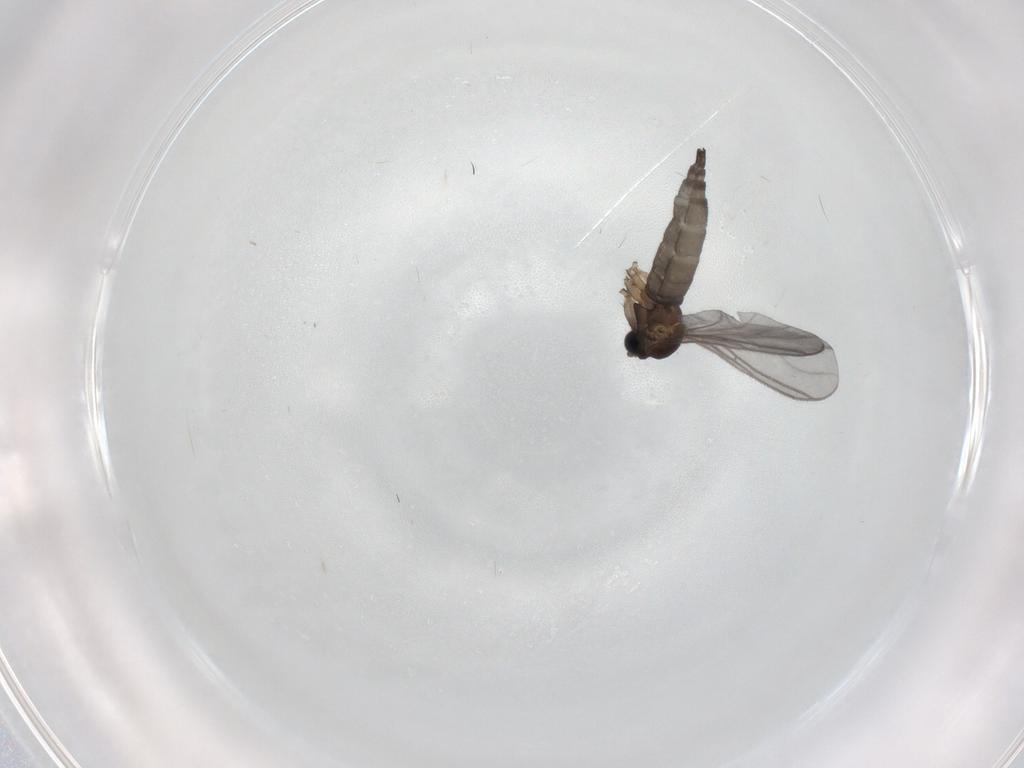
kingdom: Animalia
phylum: Arthropoda
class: Insecta
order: Diptera
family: Sciaridae
